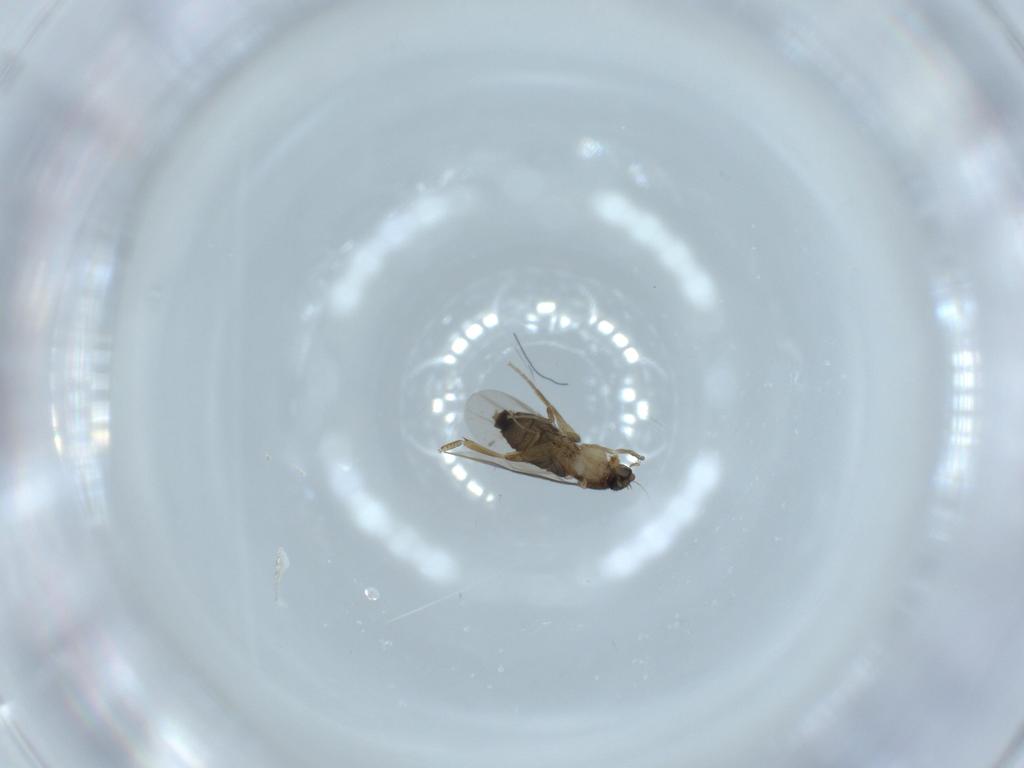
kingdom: Animalia
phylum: Arthropoda
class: Insecta
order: Diptera
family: Phoridae
